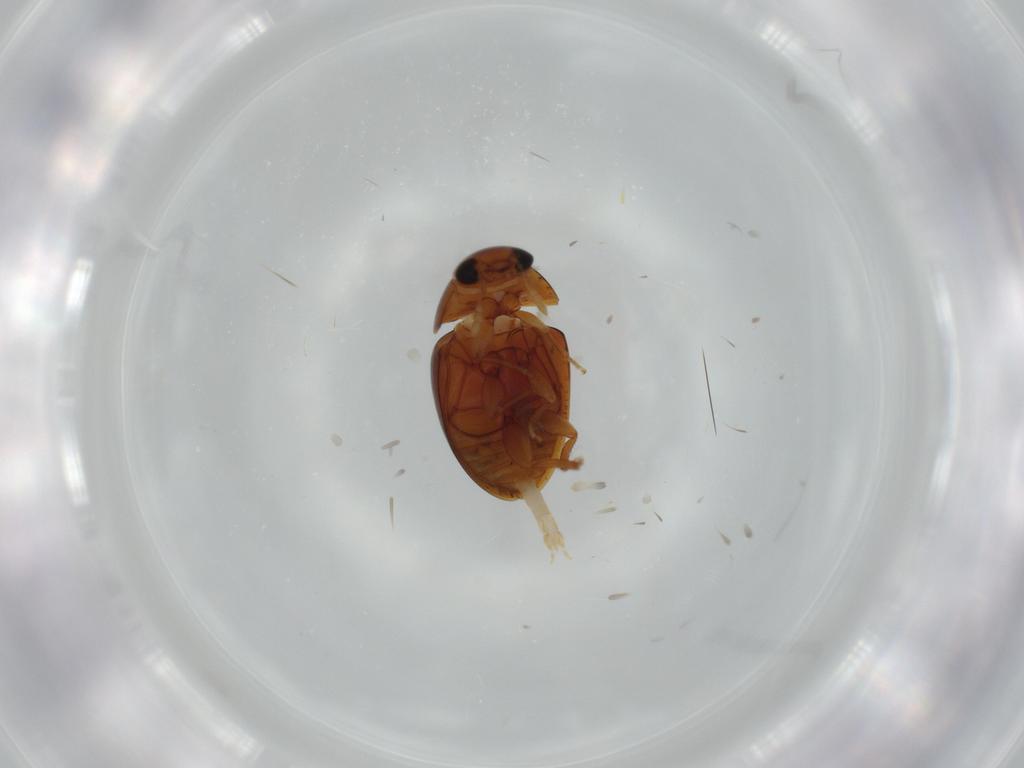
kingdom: Animalia
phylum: Arthropoda
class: Insecta
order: Coleoptera
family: Phalacridae
